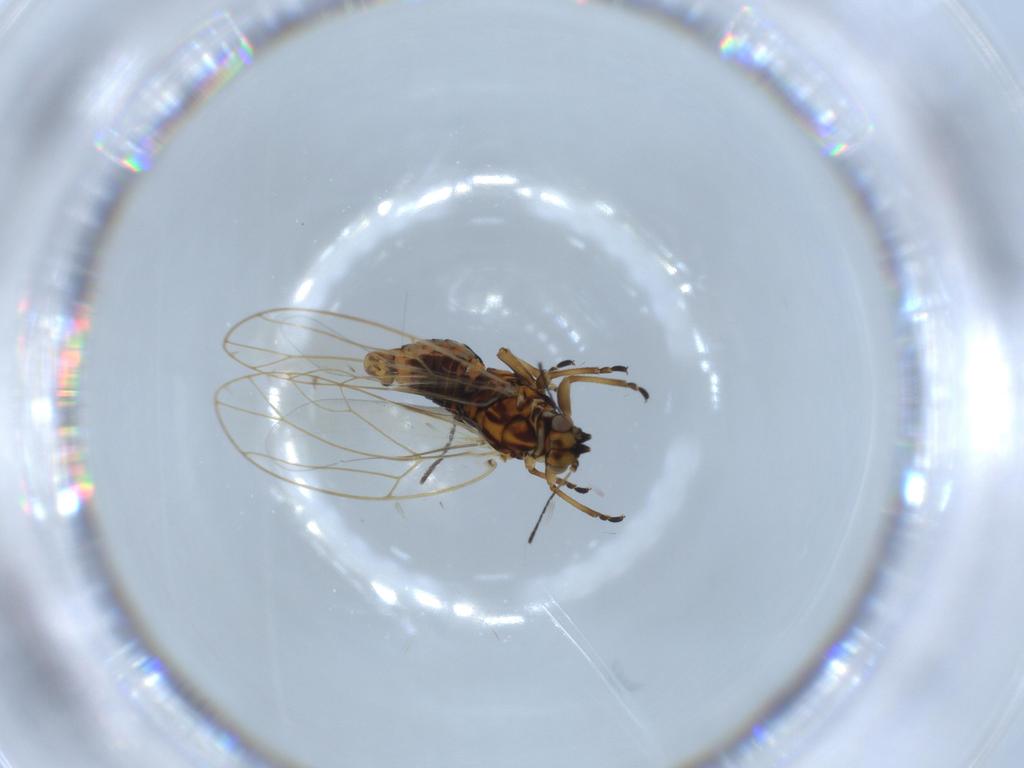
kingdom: Animalia
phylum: Arthropoda
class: Insecta
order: Hemiptera
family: Aphididae
